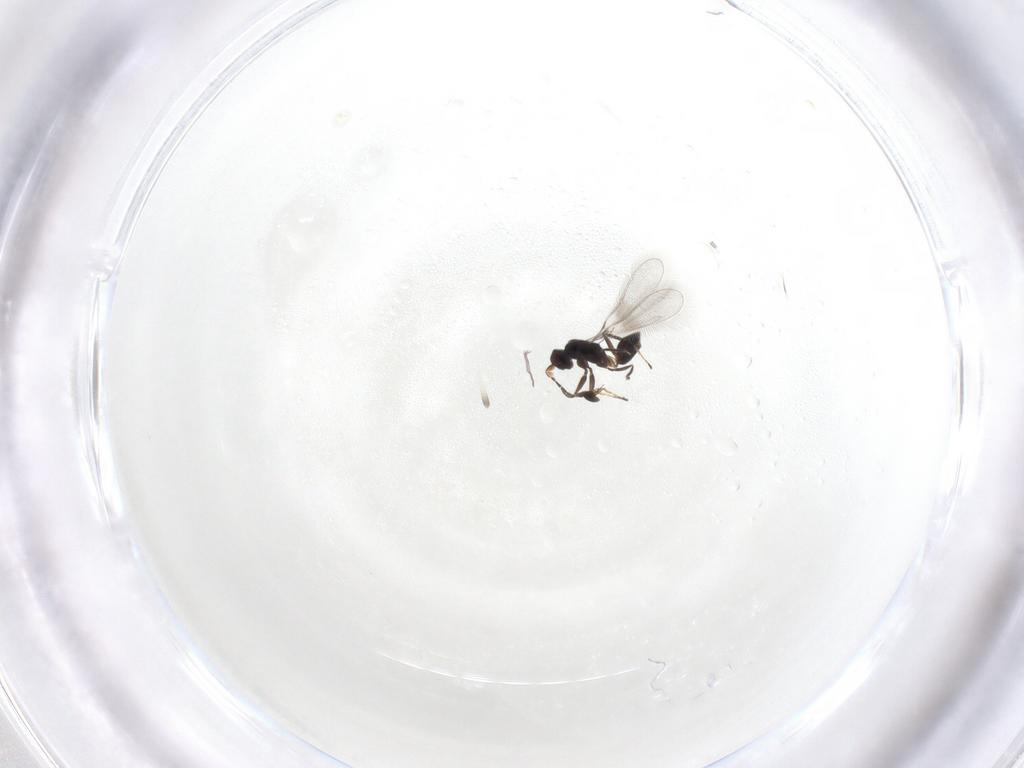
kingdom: Animalia
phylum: Arthropoda
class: Insecta
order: Hymenoptera
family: Mymaridae
